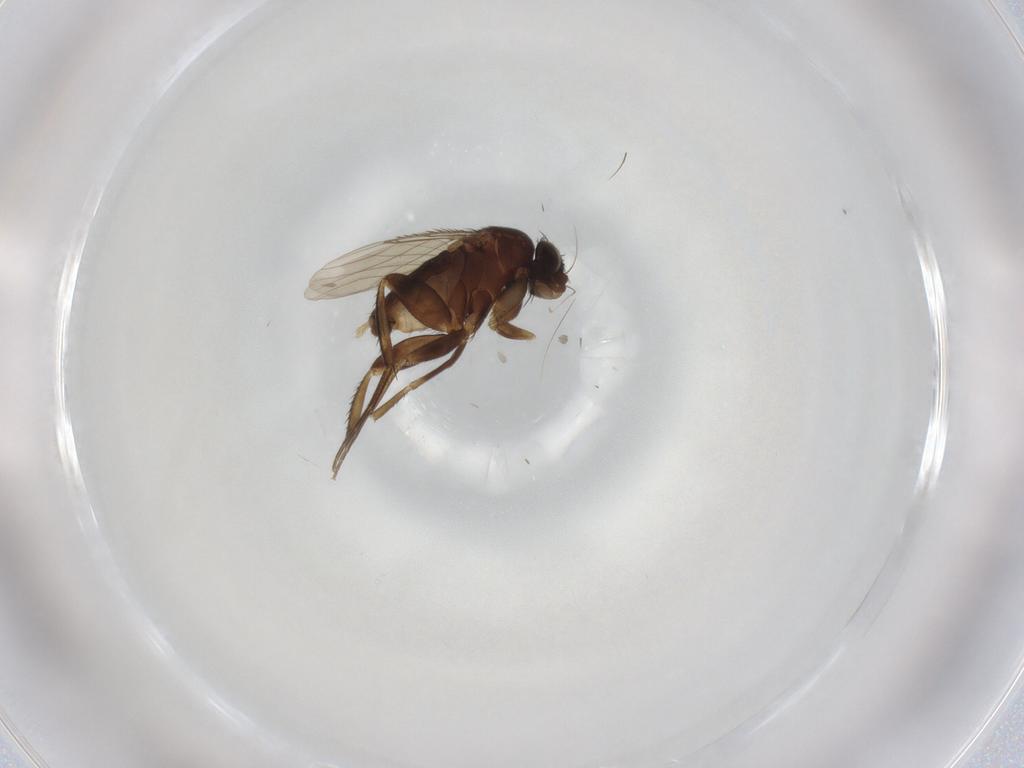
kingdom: Animalia
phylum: Arthropoda
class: Insecta
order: Diptera
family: Phoridae
